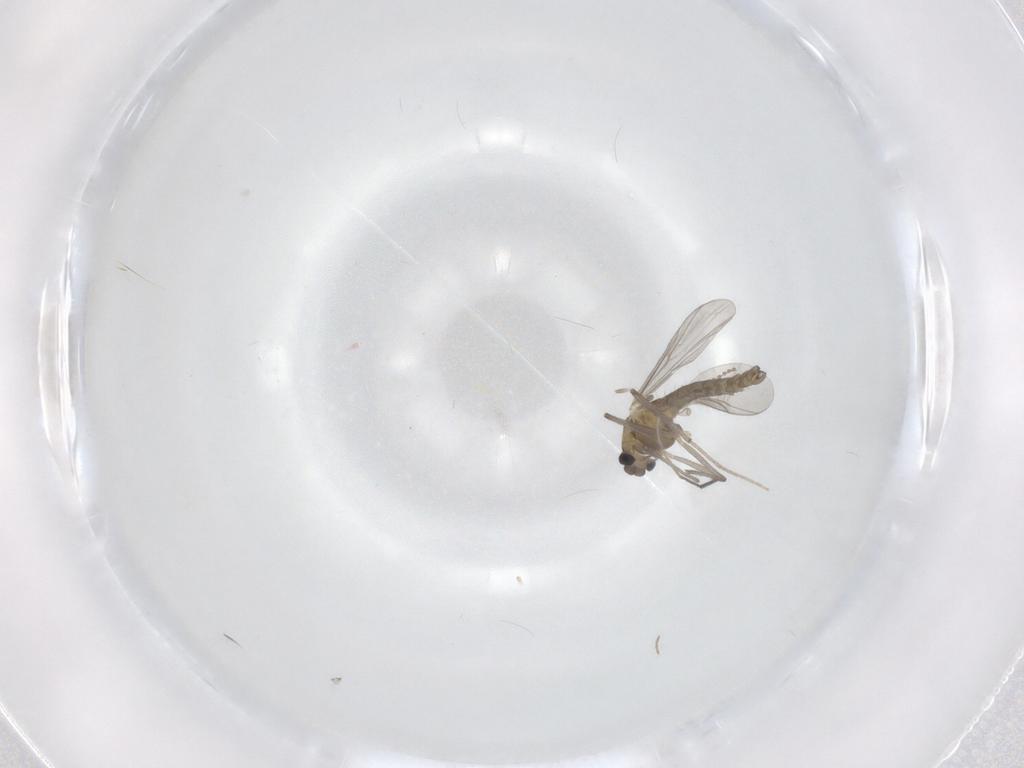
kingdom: Animalia
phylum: Arthropoda
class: Insecta
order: Diptera
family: Chironomidae
